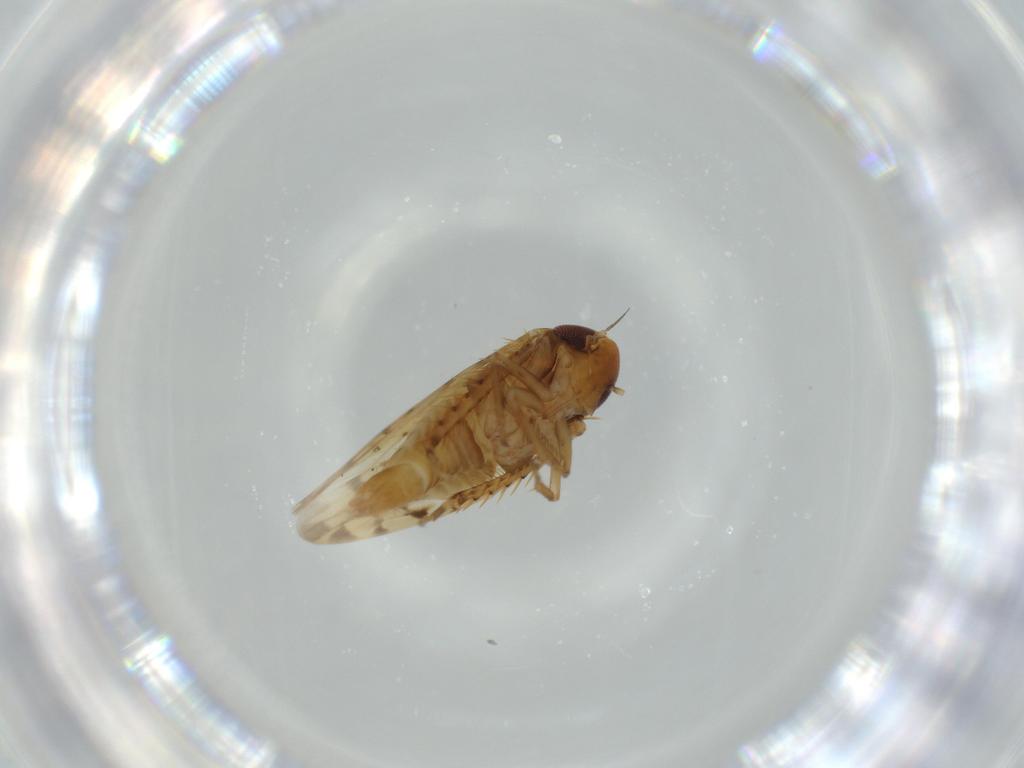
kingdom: Animalia
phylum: Arthropoda
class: Insecta
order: Hemiptera
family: Cicadellidae
